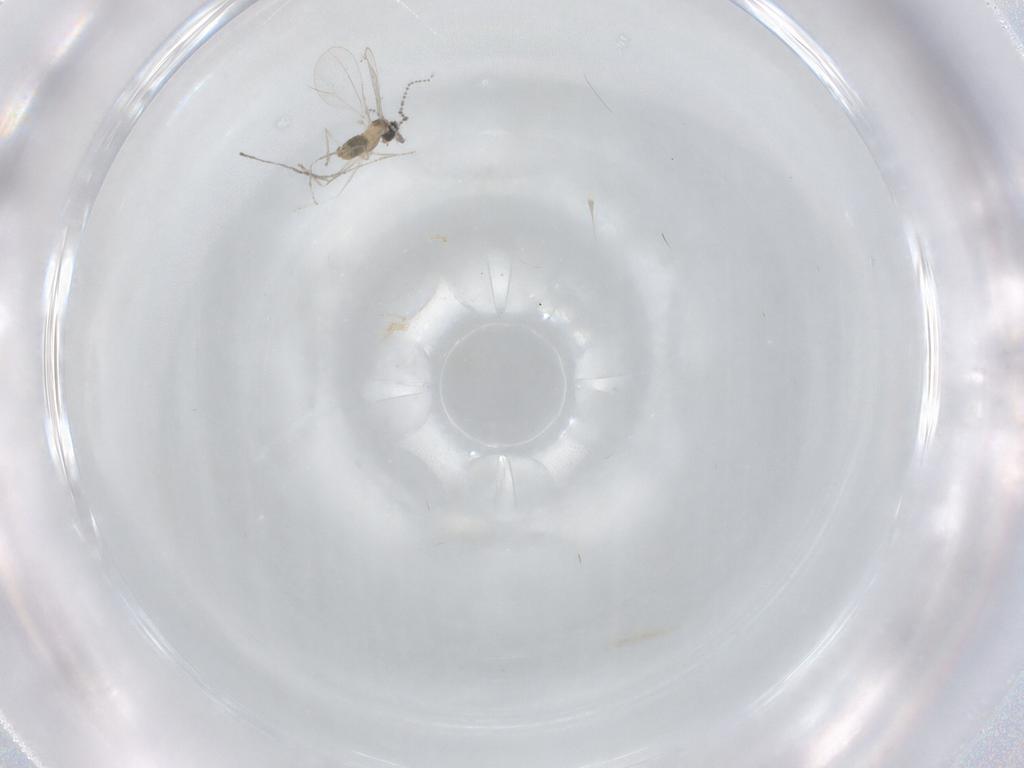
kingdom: Animalia
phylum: Arthropoda
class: Insecta
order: Diptera
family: Cecidomyiidae
